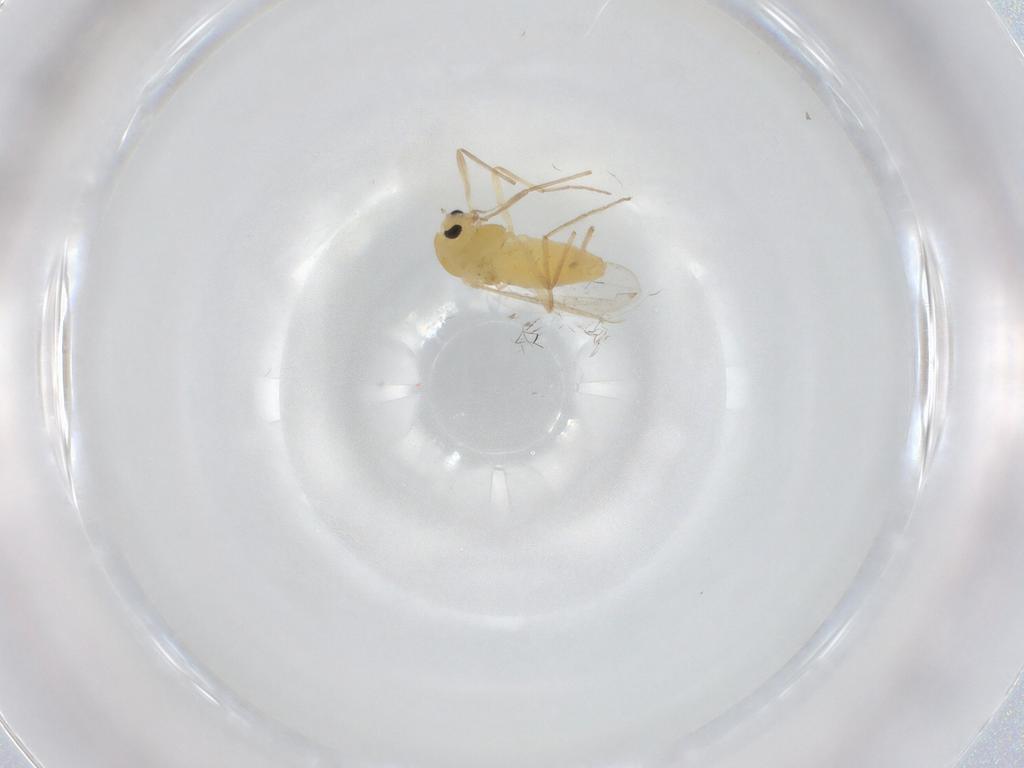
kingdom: Animalia
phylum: Arthropoda
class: Insecta
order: Diptera
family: Chironomidae
